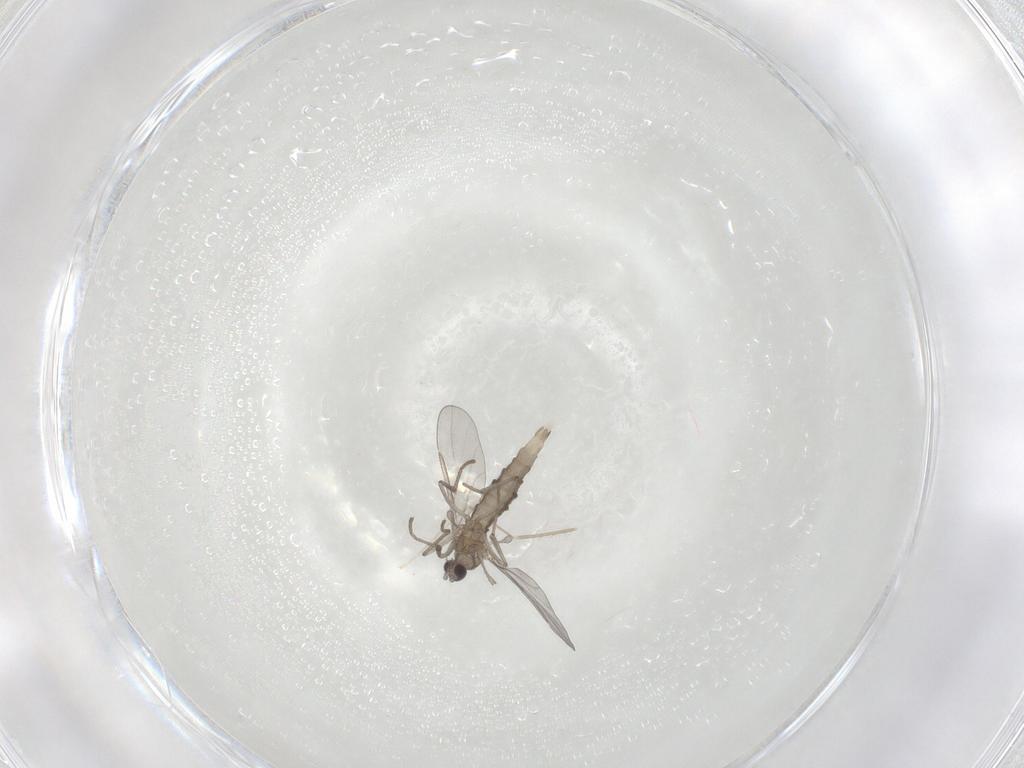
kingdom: Animalia
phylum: Arthropoda
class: Insecta
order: Diptera
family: Cecidomyiidae
